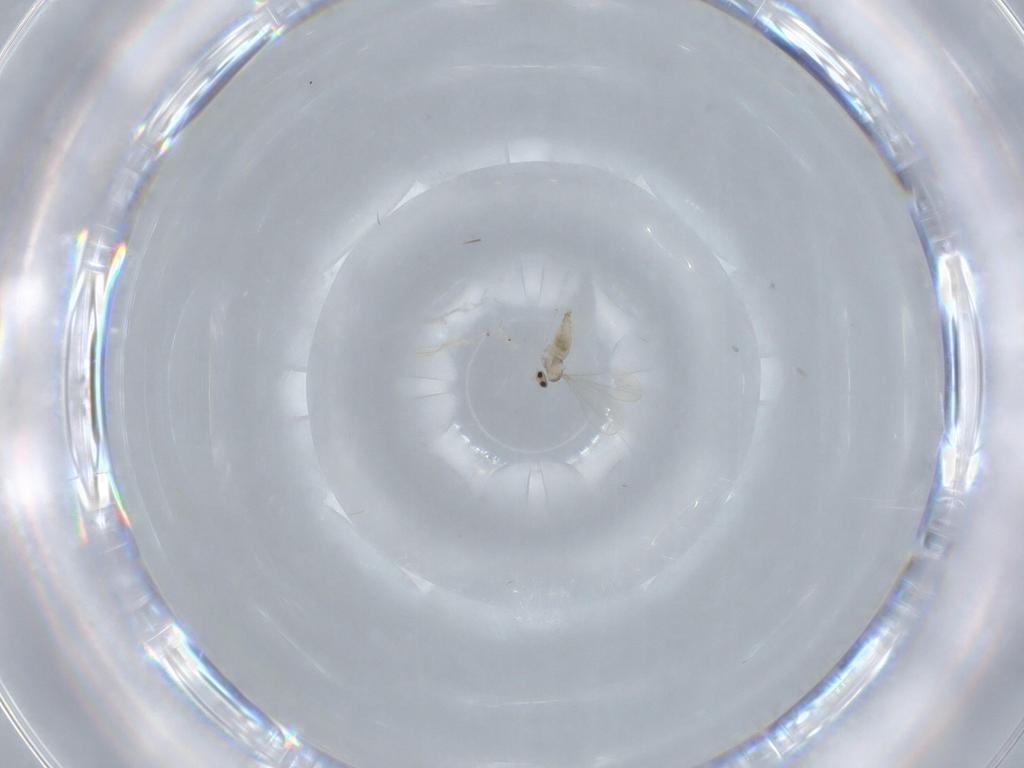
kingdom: Animalia
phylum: Arthropoda
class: Insecta
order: Diptera
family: Cecidomyiidae
